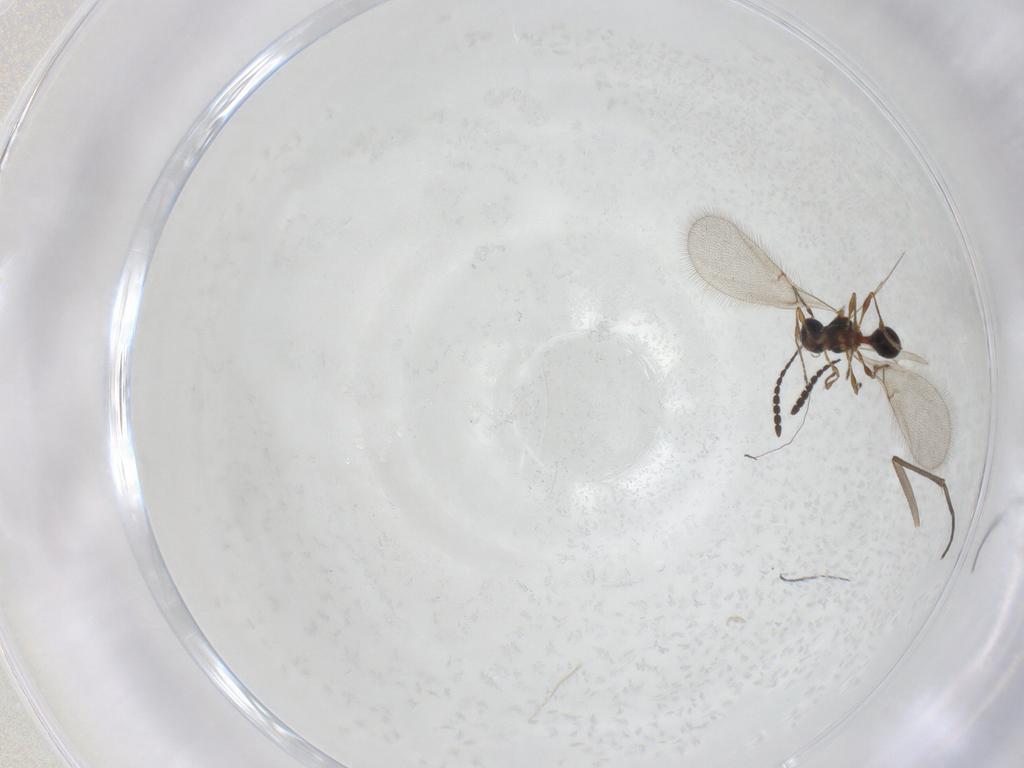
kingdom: Animalia
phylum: Arthropoda
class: Insecta
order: Hymenoptera
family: Diapriidae
